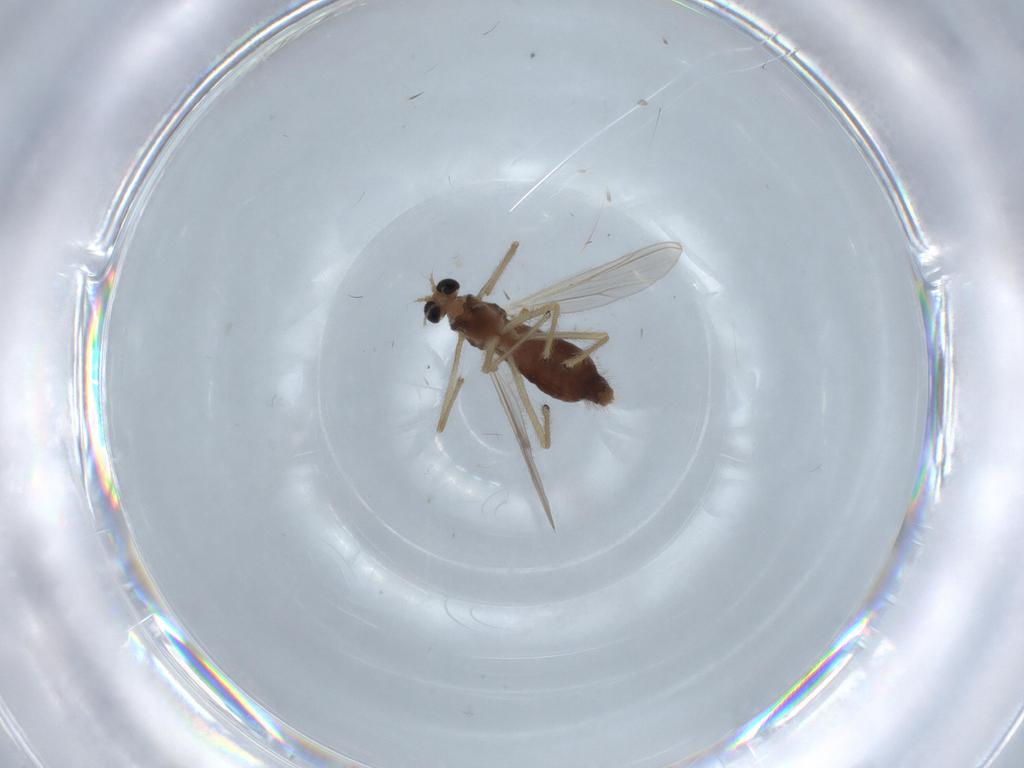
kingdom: Animalia
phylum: Arthropoda
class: Insecta
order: Diptera
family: Chironomidae
